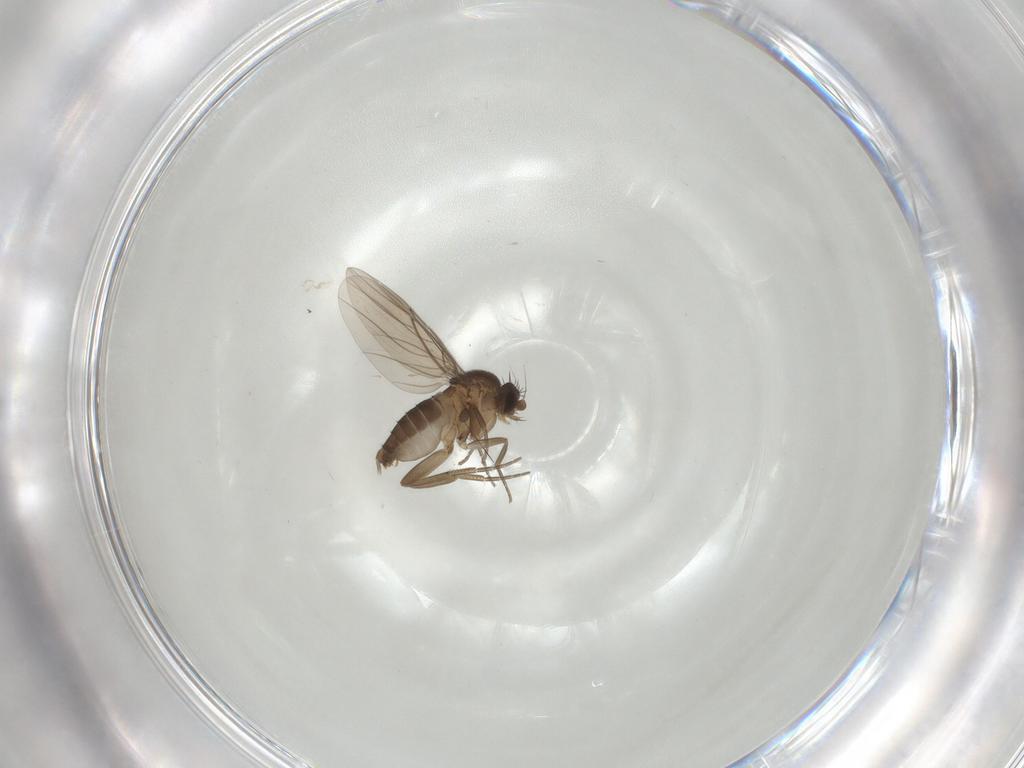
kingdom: Animalia
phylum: Arthropoda
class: Insecta
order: Diptera
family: Phoridae
